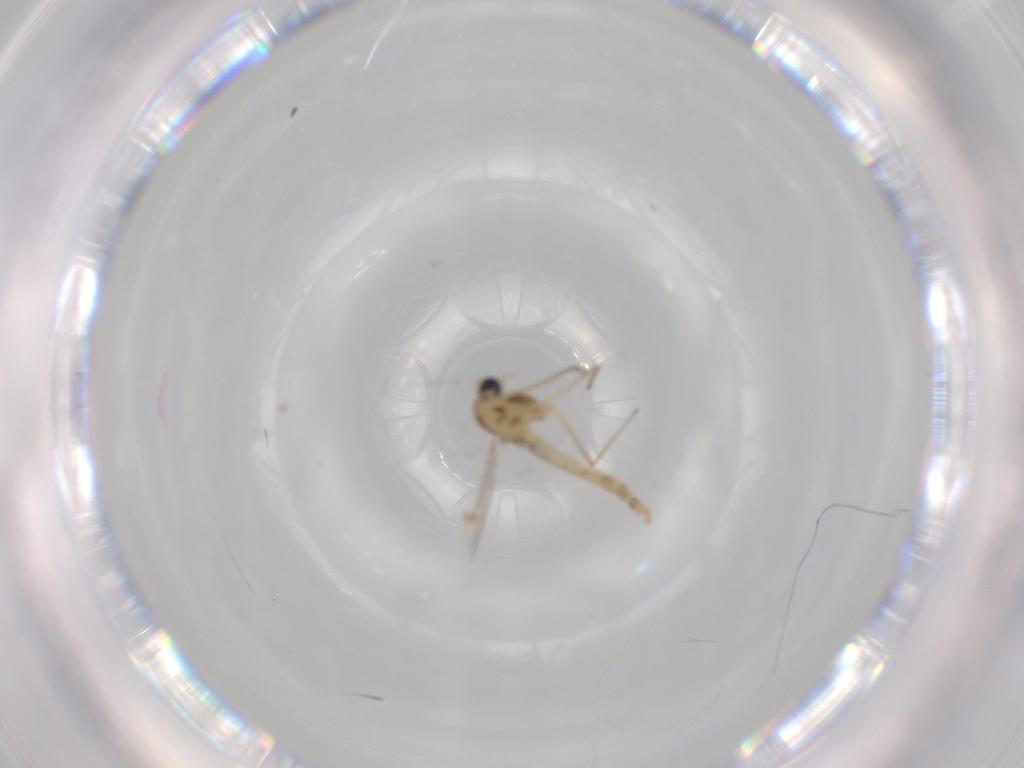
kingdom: Animalia
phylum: Arthropoda
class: Insecta
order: Diptera
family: Chironomidae
